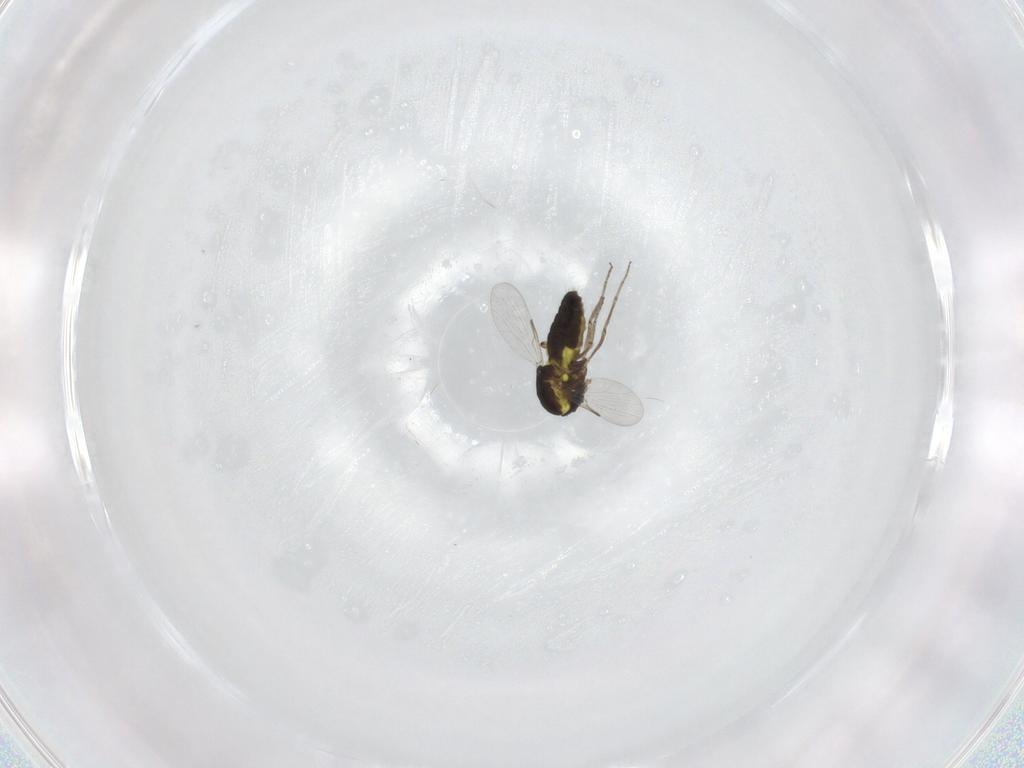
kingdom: Animalia
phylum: Arthropoda
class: Insecta
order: Diptera
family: Ceratopogonidae
